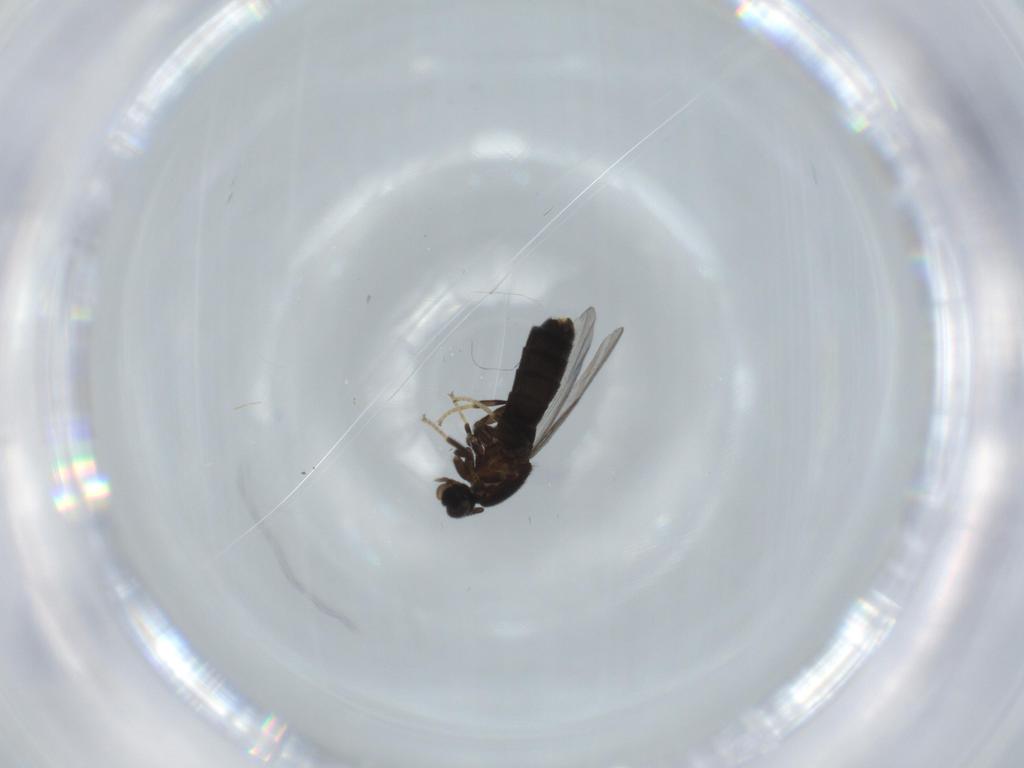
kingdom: Animalia
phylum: Arthropoda
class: Insecta
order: Diptera
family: Scatopsidae
